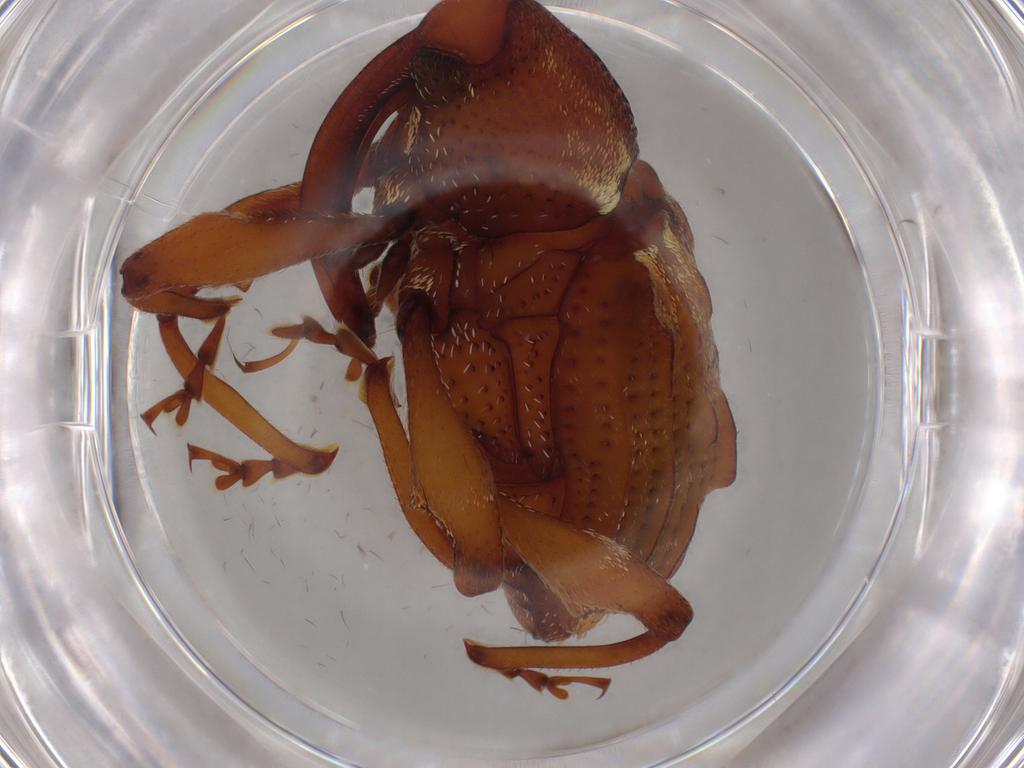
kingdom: Animalia
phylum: Arthropoda
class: Insecta
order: Coleoptera
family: Curculionidae
